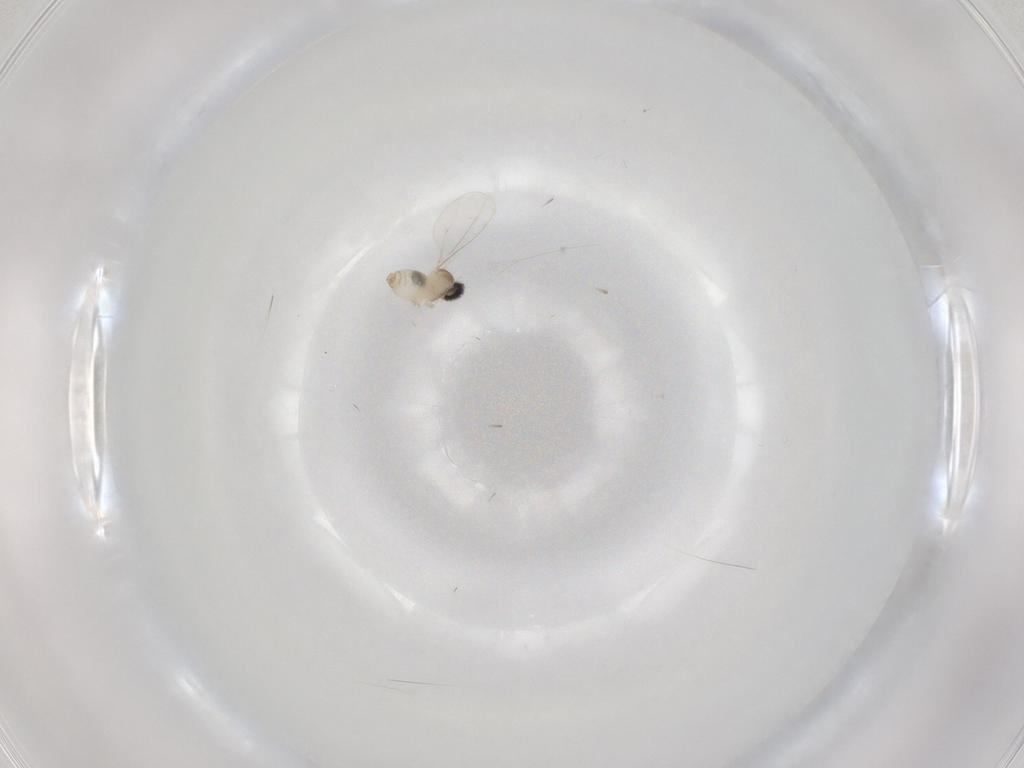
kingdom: Animalia
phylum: Arthropoda
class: Insecta
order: Diptera
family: Cecidomyiidae
